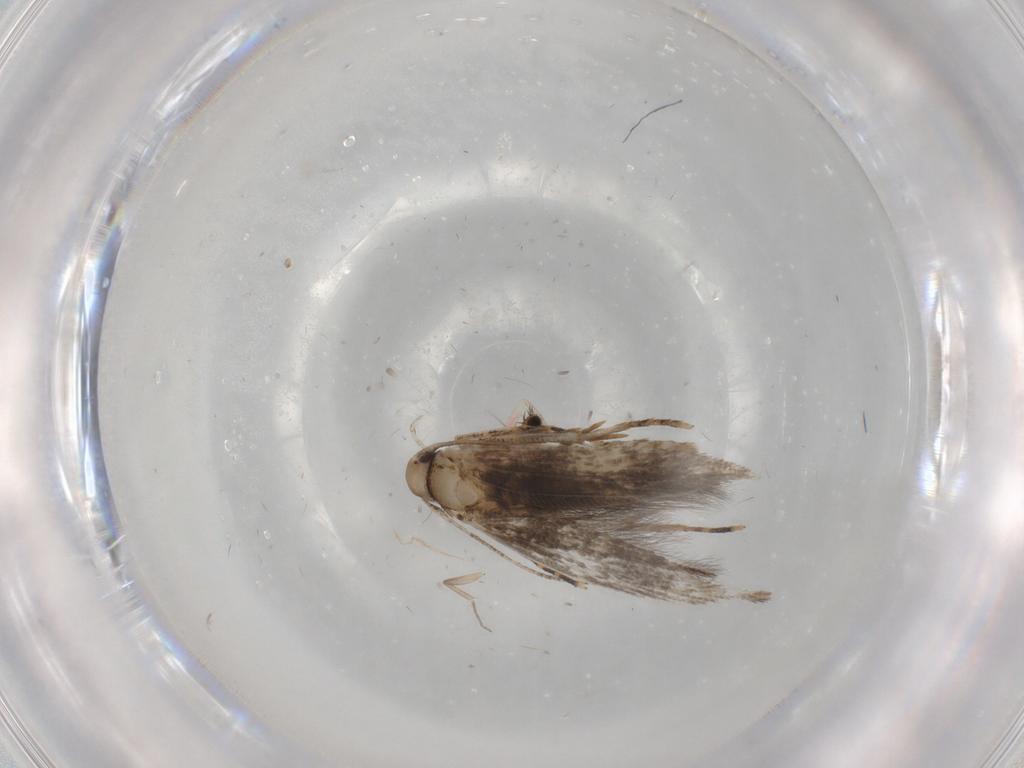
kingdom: Animalia
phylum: Arthropoda
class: Insecta
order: Lepidoptera
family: Cosmopterigidae
